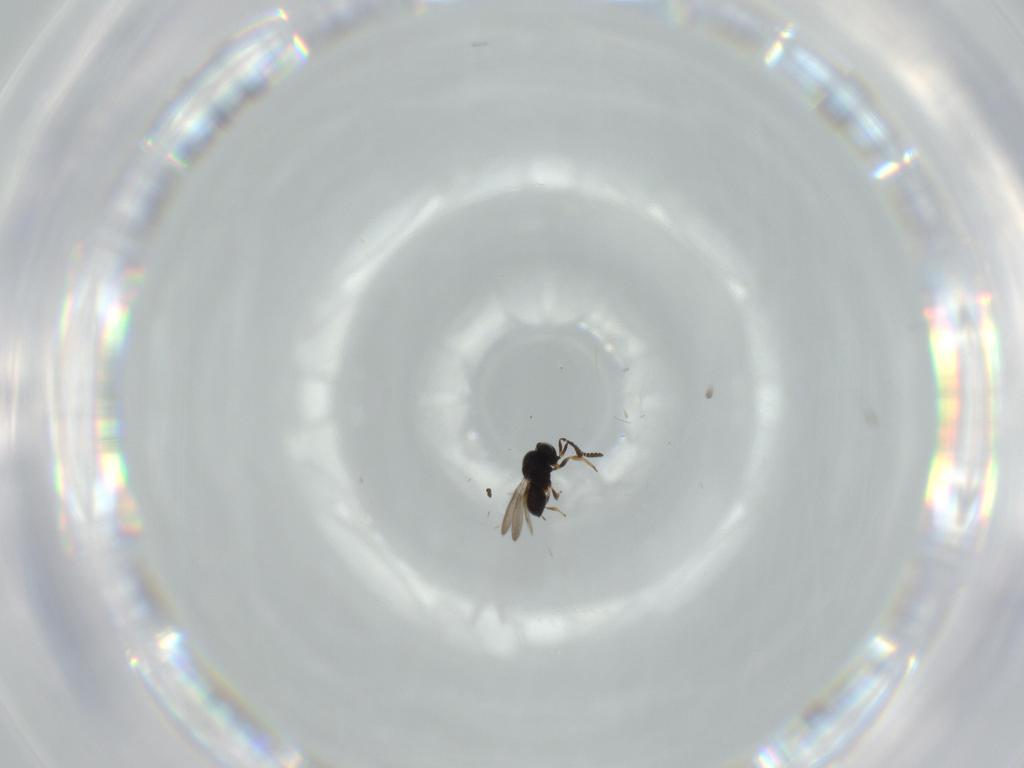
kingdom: Animalia
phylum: Arthropoda
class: Insecta
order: Hymenoptera
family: Scelionidae
